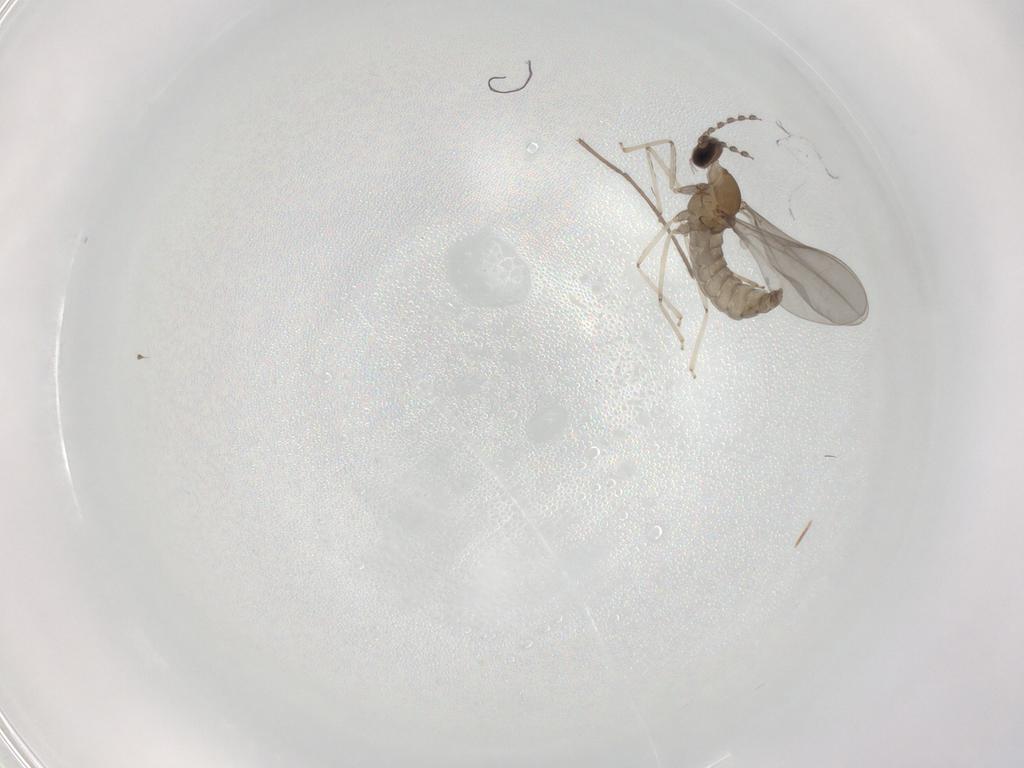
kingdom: Animalia
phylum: Arthropoda
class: Insecta
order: Diptera
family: Cecidomyiidae
